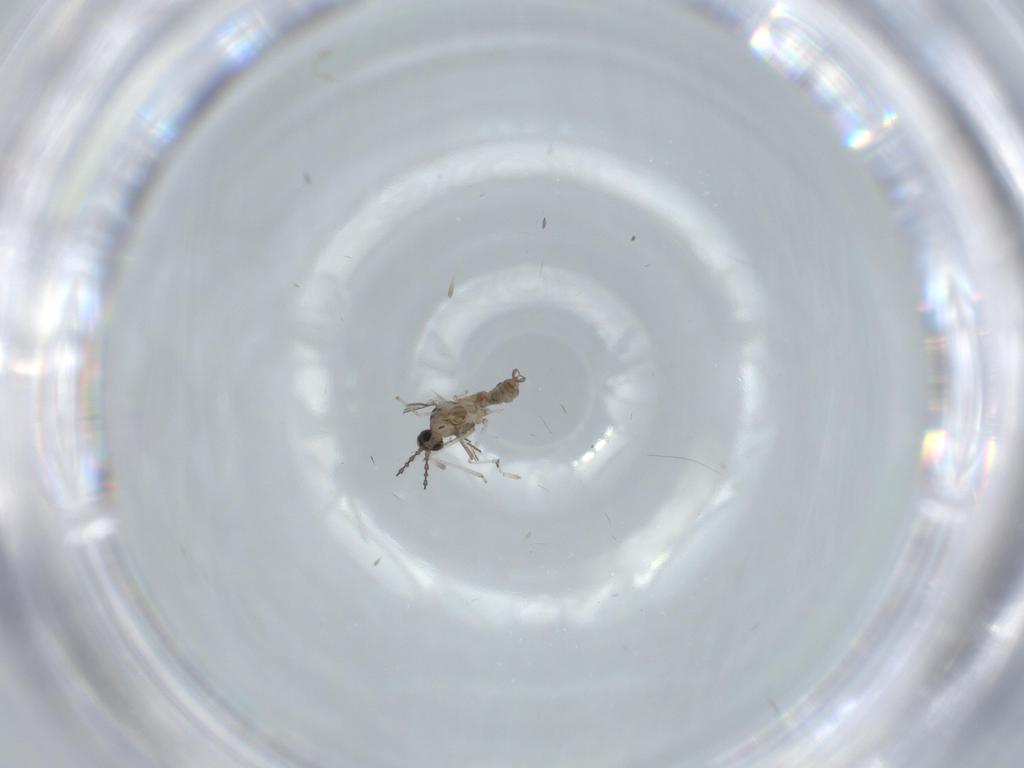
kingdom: Animalia
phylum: Arthropoda
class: Insecta
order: Diptera
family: Cecidomyiidae
